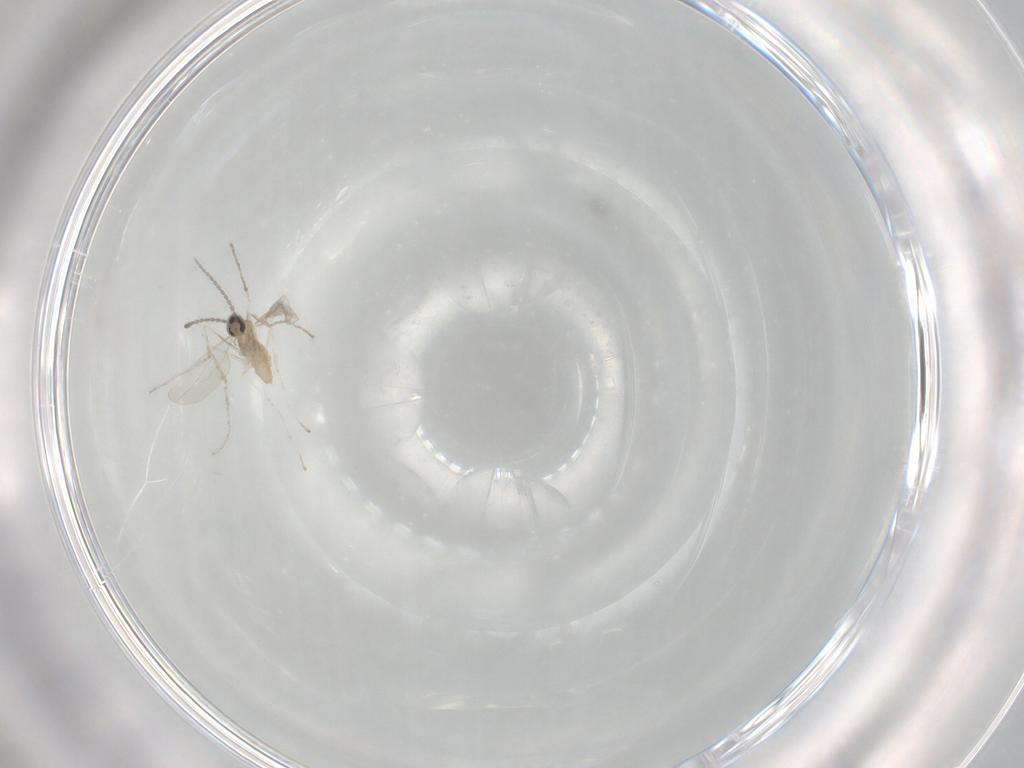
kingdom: Animalia
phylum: Arthropoda
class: Insecta
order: Diptera
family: Cecidomyiidae
